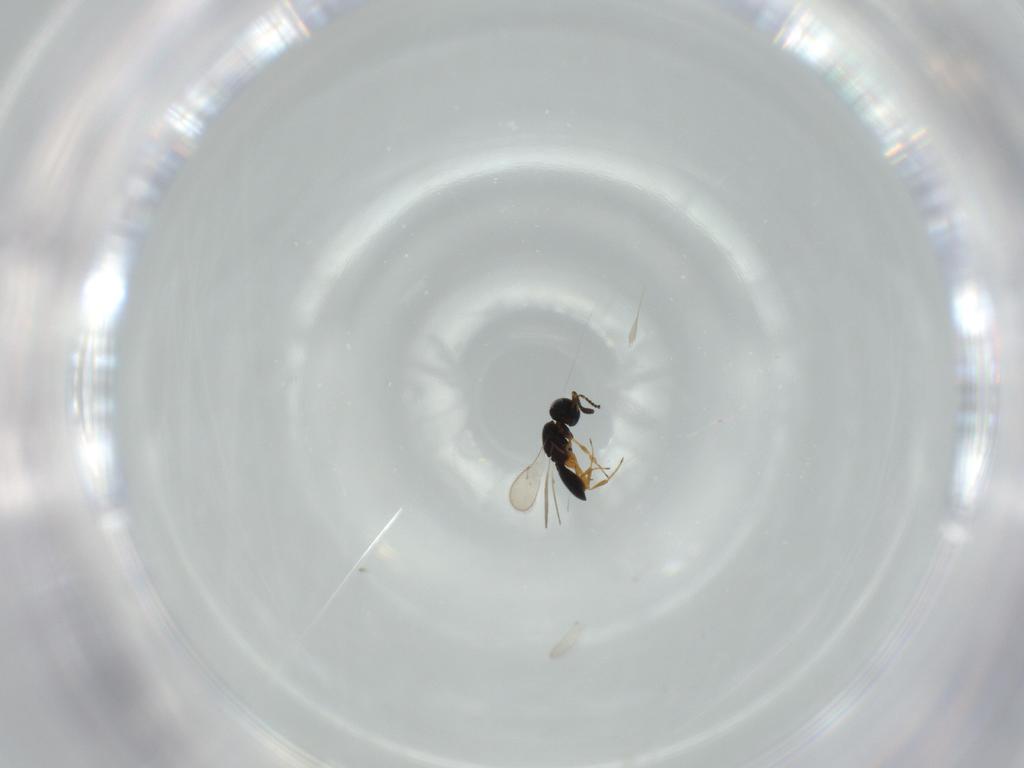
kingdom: Animalia
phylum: Arthropoda
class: Insecta
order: Hymenoptera
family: Scelionidae
